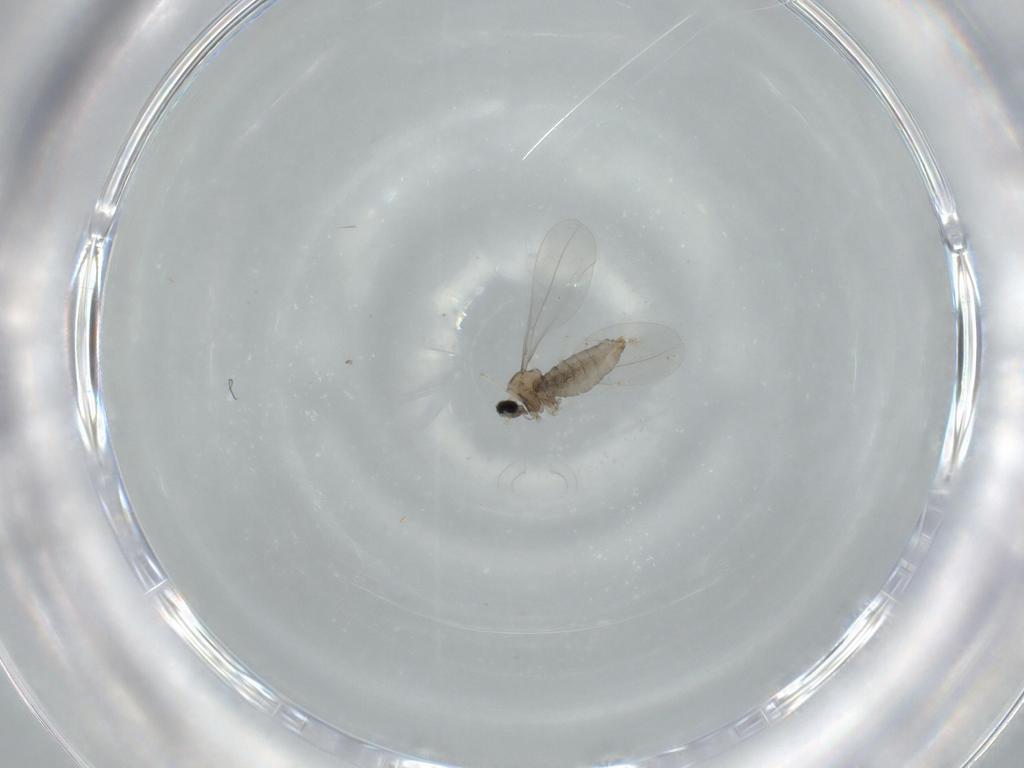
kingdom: Animalia
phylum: Arthropoda
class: Insecta
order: Diptera
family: Cecidomyiidae
